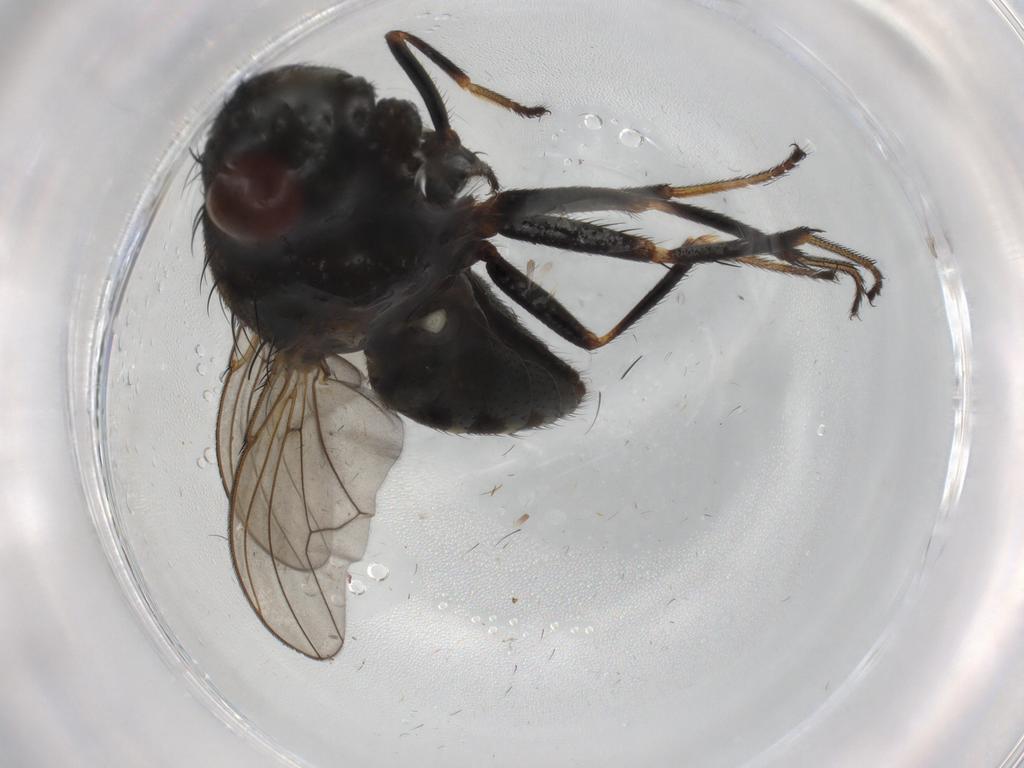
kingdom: Animalia
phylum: Arthropoda
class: Insecta
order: Diptera
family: Ephydridae
